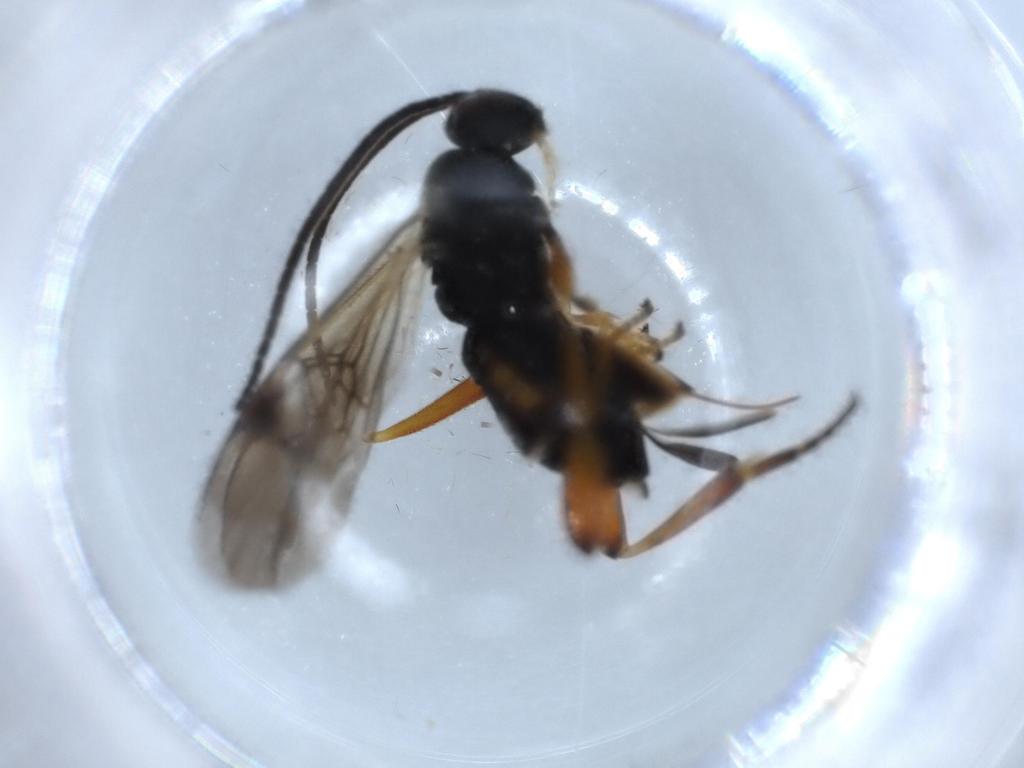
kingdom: Animalia
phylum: Arthropoda
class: Insecta
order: Hymenoptera
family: Braconidae
